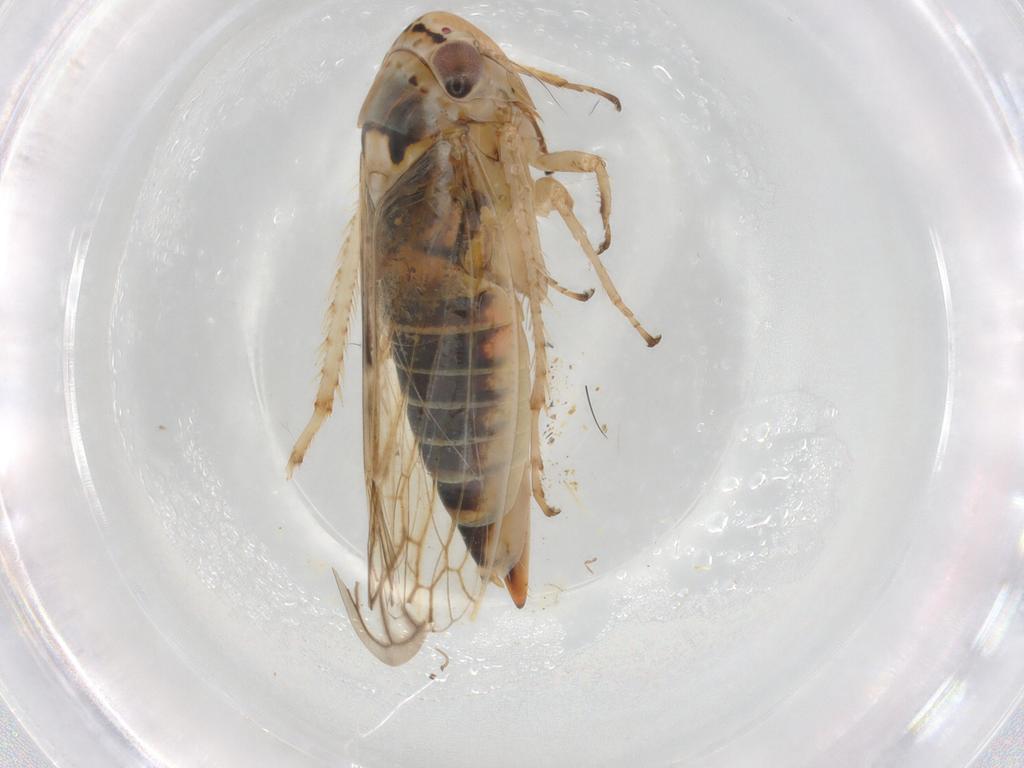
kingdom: Animalia
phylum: Arthropoda
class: Insecta
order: Hemiptera
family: Cicadellidae
